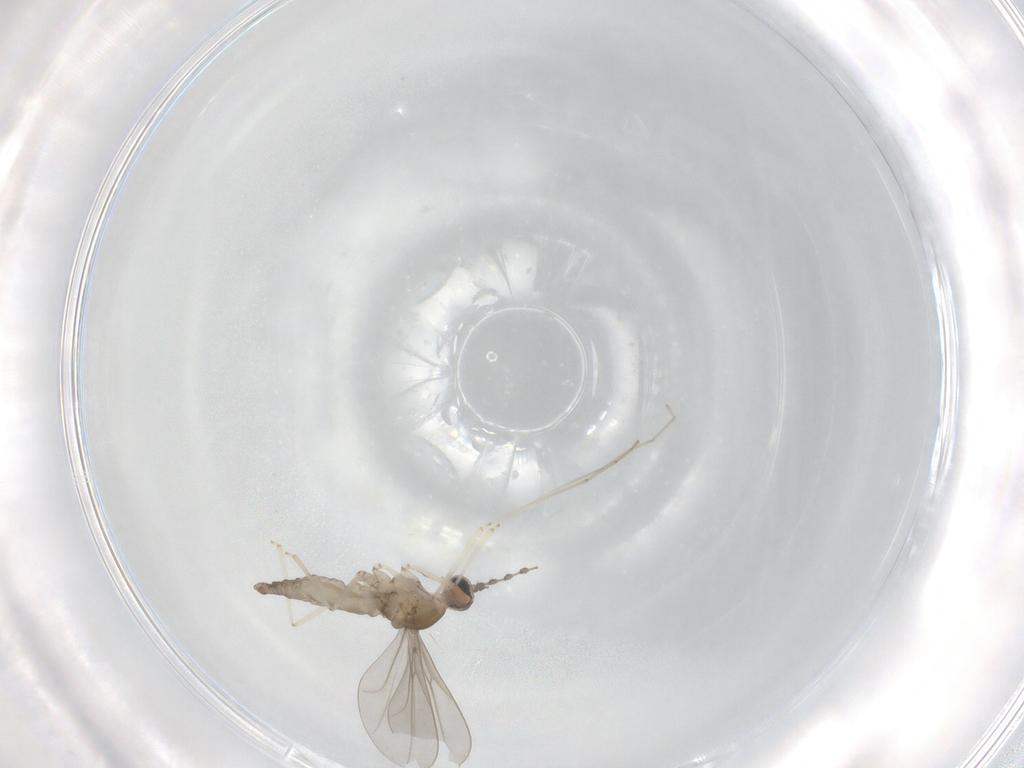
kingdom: Animalia
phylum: Arthropoda
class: Insecta
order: Diptera
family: Cecidomyiidae
